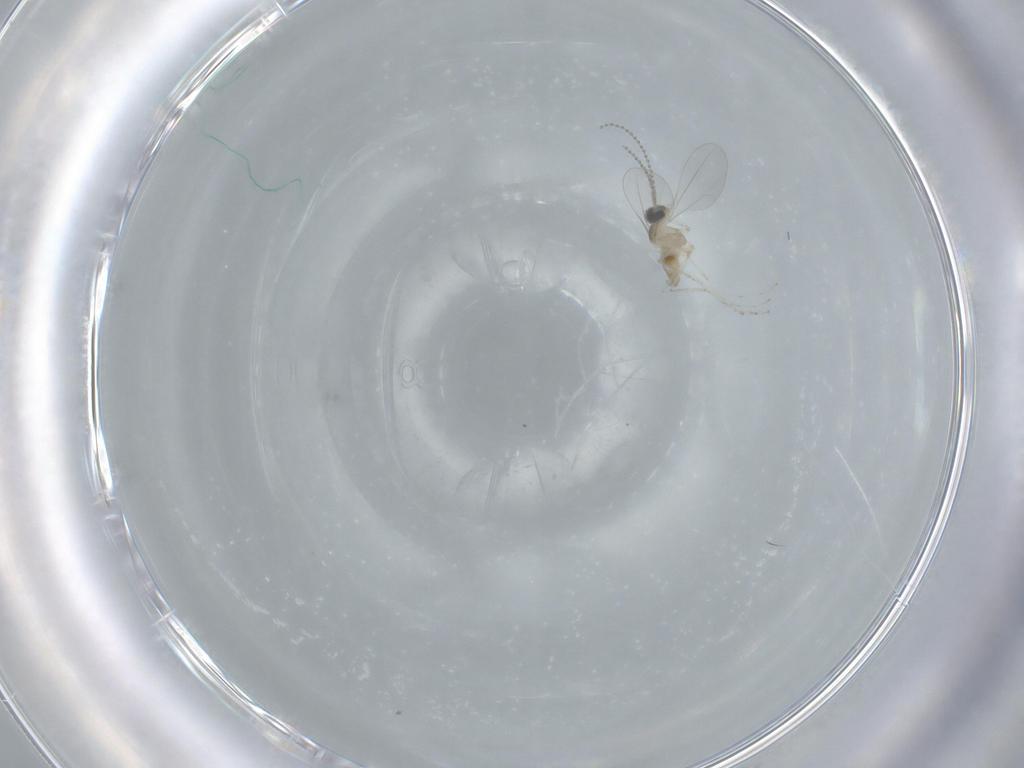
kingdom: Animalia
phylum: Arthropoda
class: Insecta
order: Diptera
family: Cecidomyiidae
